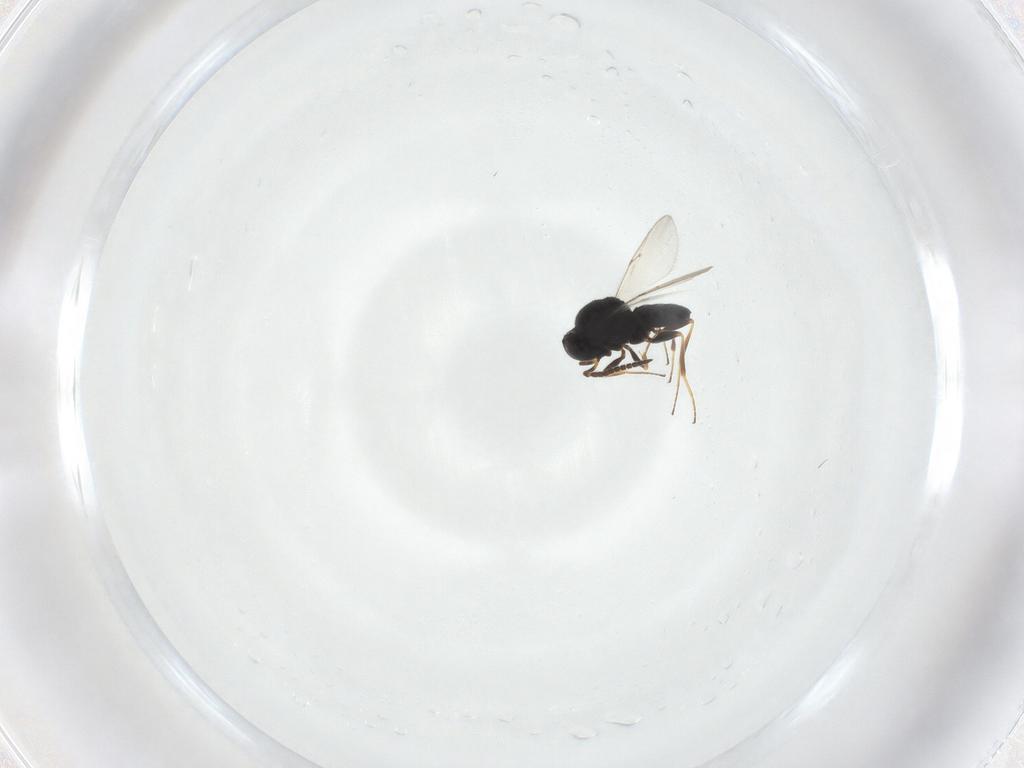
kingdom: Animalia
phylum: Arthropoda
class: Insecta
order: Hymenoptera
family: Scelionidae
